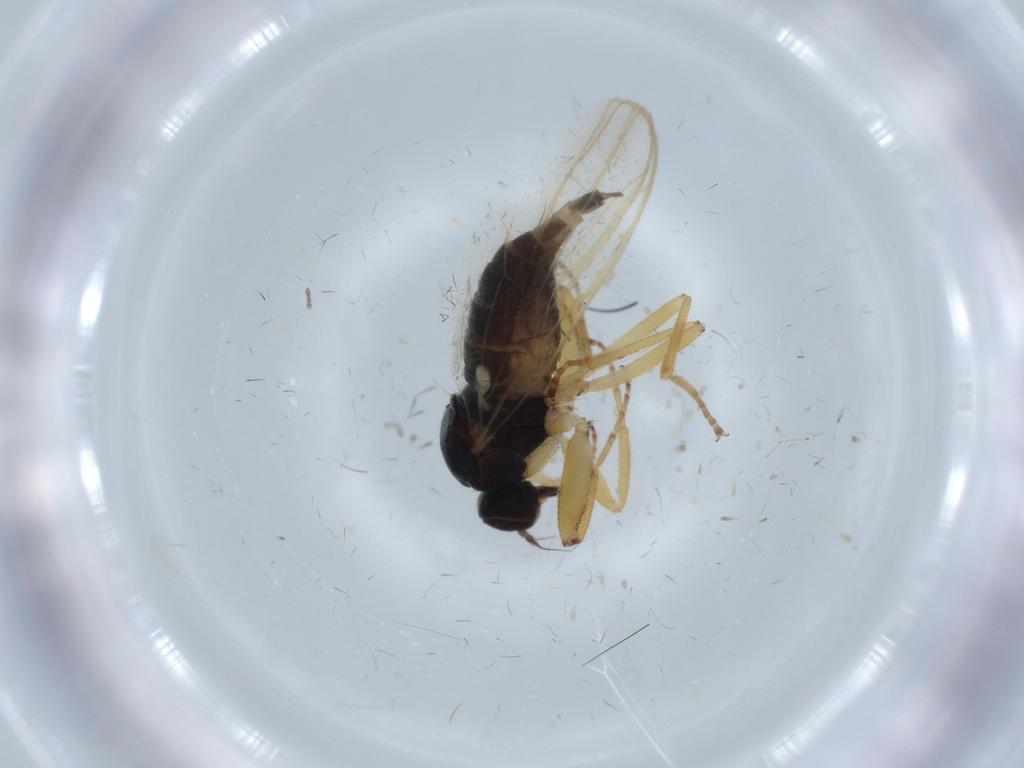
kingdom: Animalia
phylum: Arthropoda
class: Insecta
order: Diptera
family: Hybotidae
